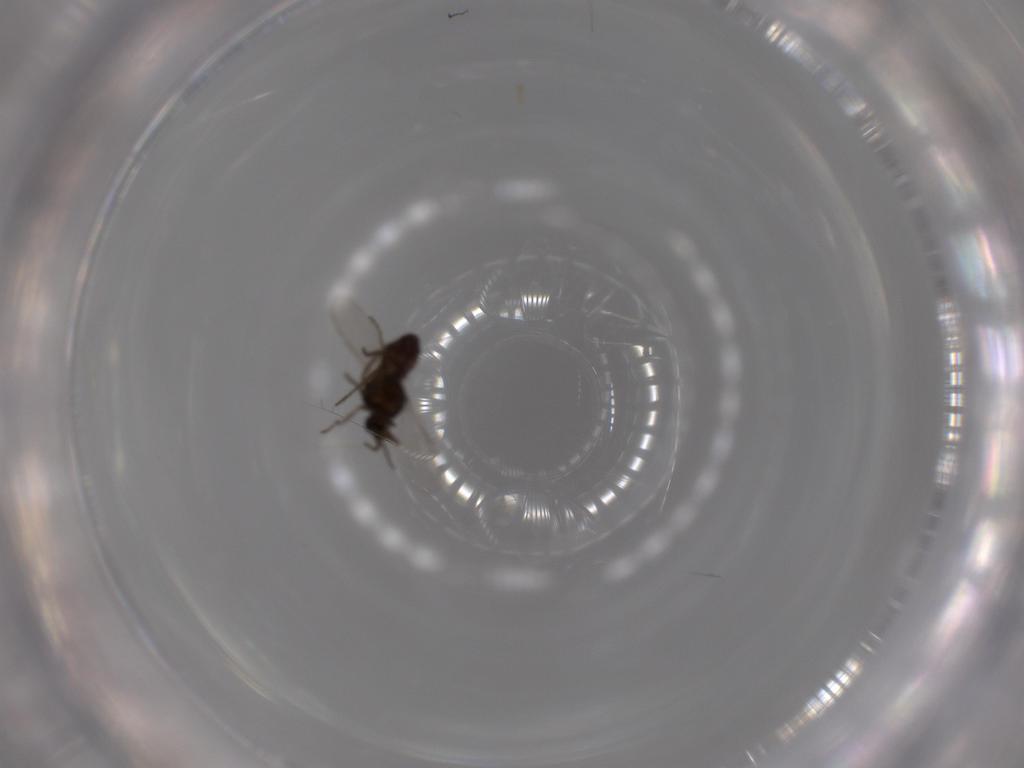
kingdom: Animalia
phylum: Arthropoda
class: Insecta
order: Diptera
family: Ceratopogonidae
